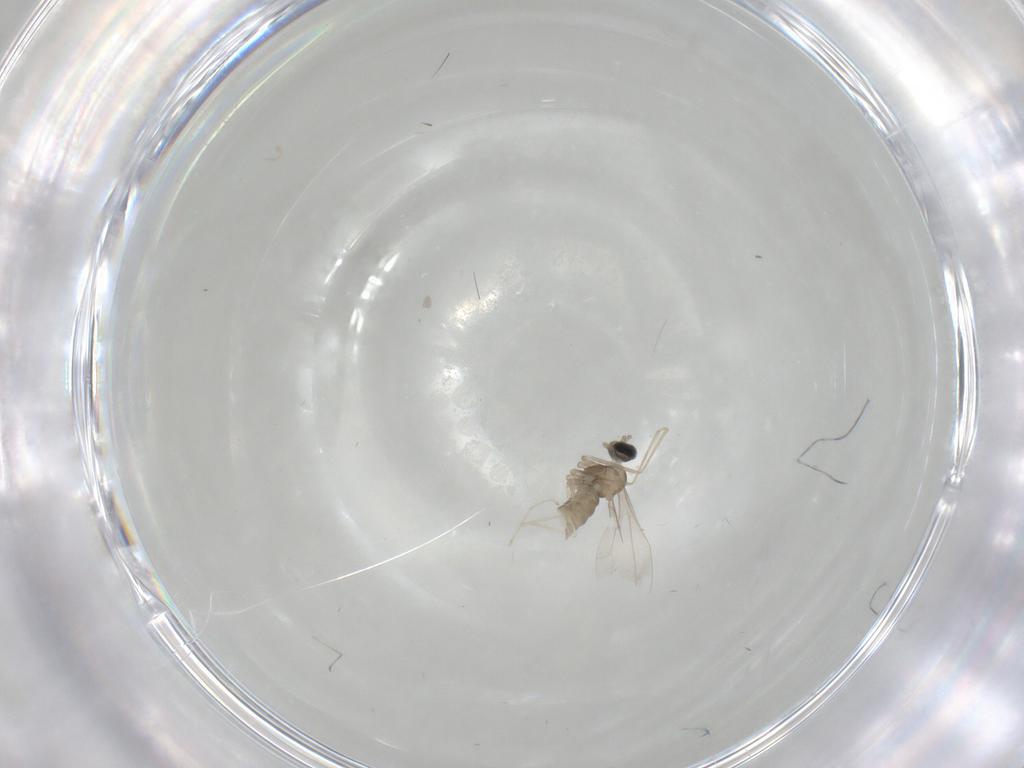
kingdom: Animalia
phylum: Arthropoda
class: Insecta
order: Diptera
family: Cecidomyiidae
